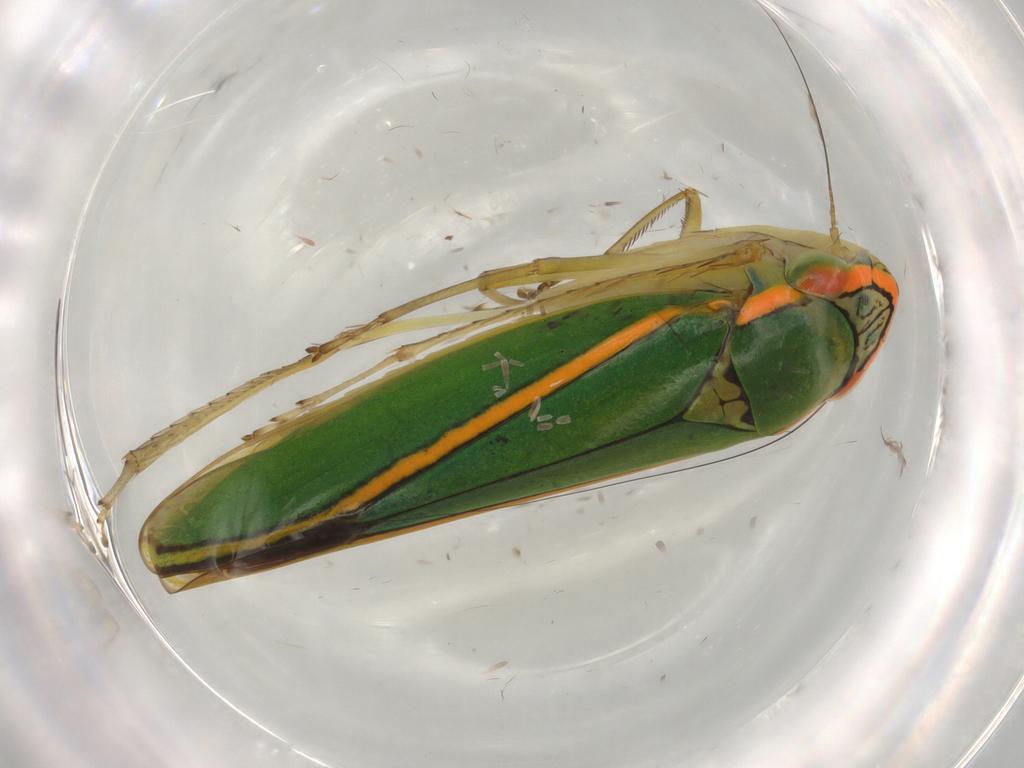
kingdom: Animalia
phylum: Arthropoda
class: Insecta
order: Hemiptera
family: Cicadellidae
